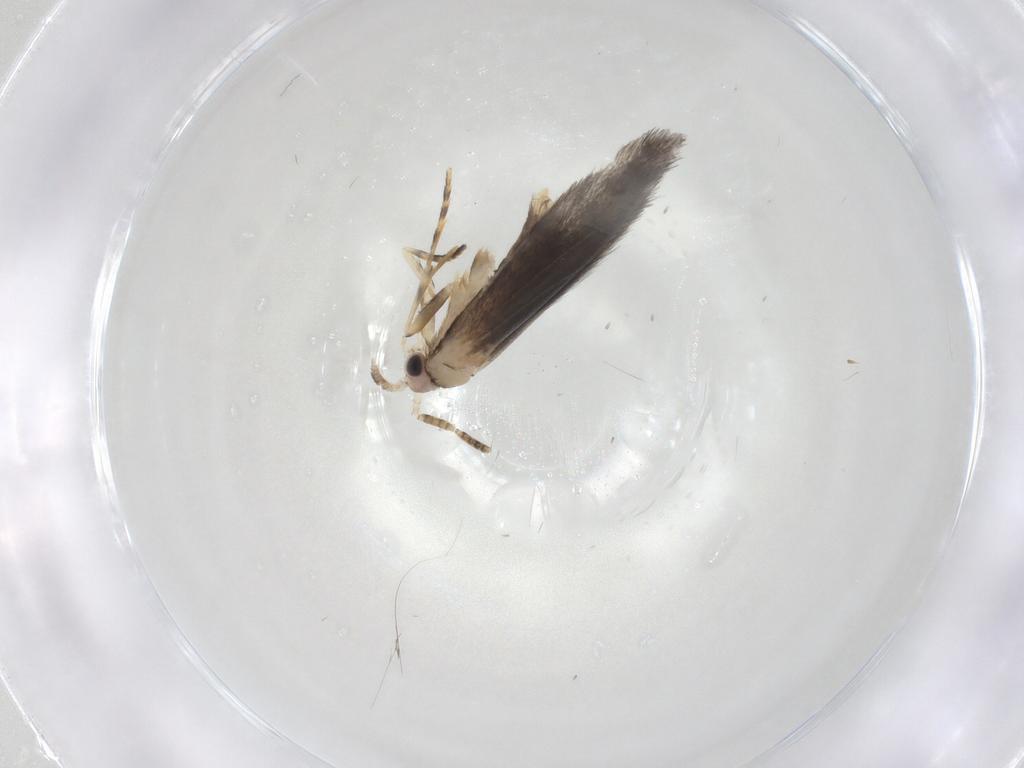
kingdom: Animalia
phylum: Arthropoda
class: Insecta
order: Lepidoptera
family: Tineidae
